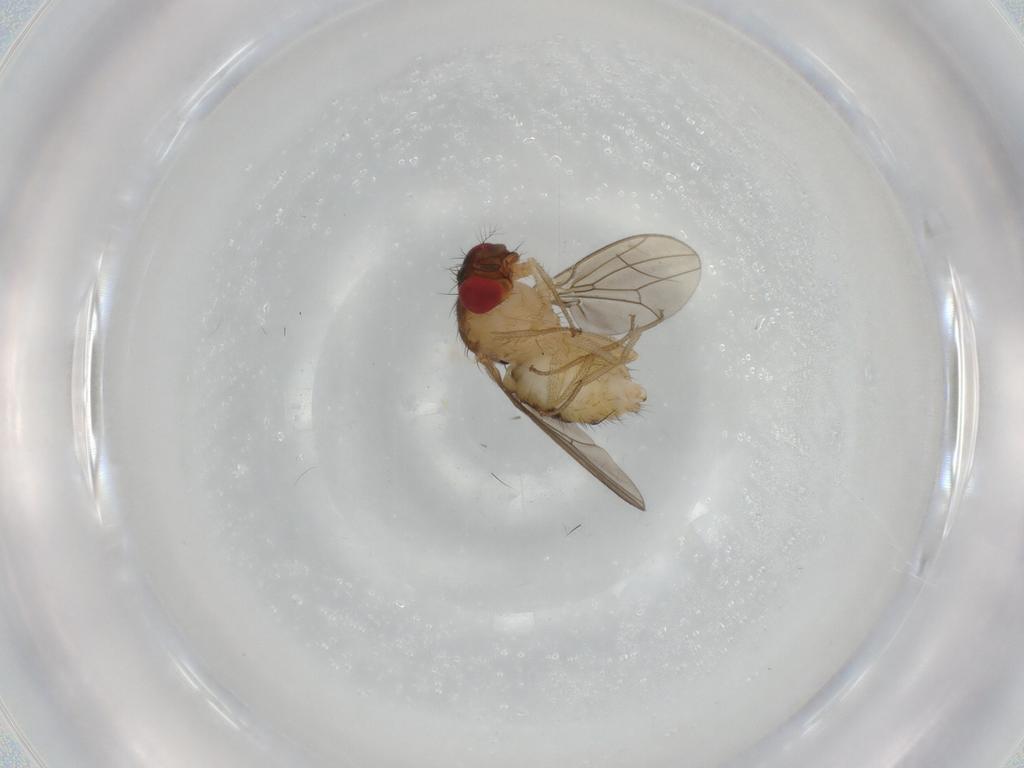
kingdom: Animalia
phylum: Arthropoda
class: Insecta
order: Diptera
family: Drosophilidae
